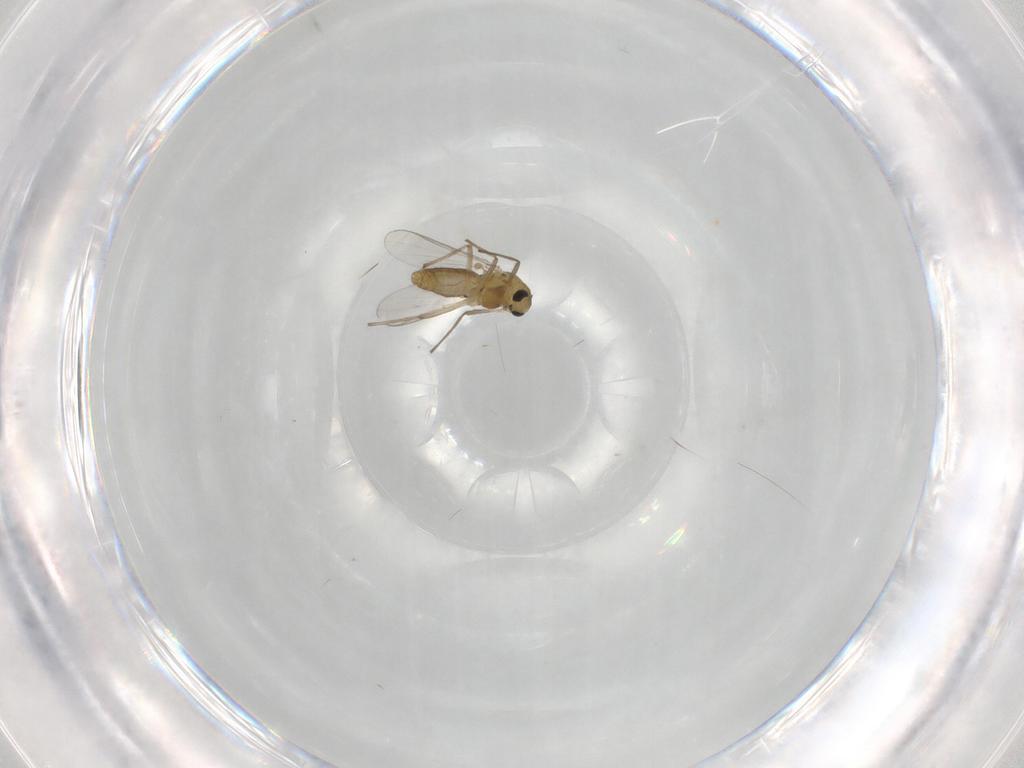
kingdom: Animalia
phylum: Arthropoda
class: Insecta
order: Diptera
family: Chironomidae
